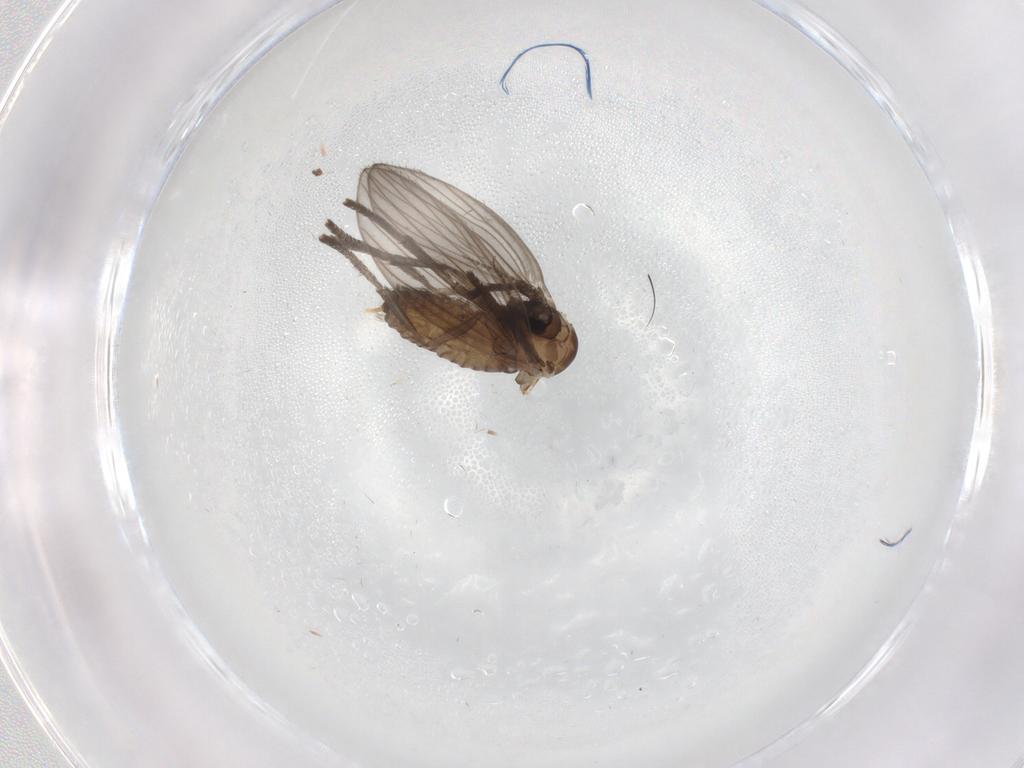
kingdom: Animalia
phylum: Arthropoda
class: Insecta
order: Diptera
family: Psychodidae
